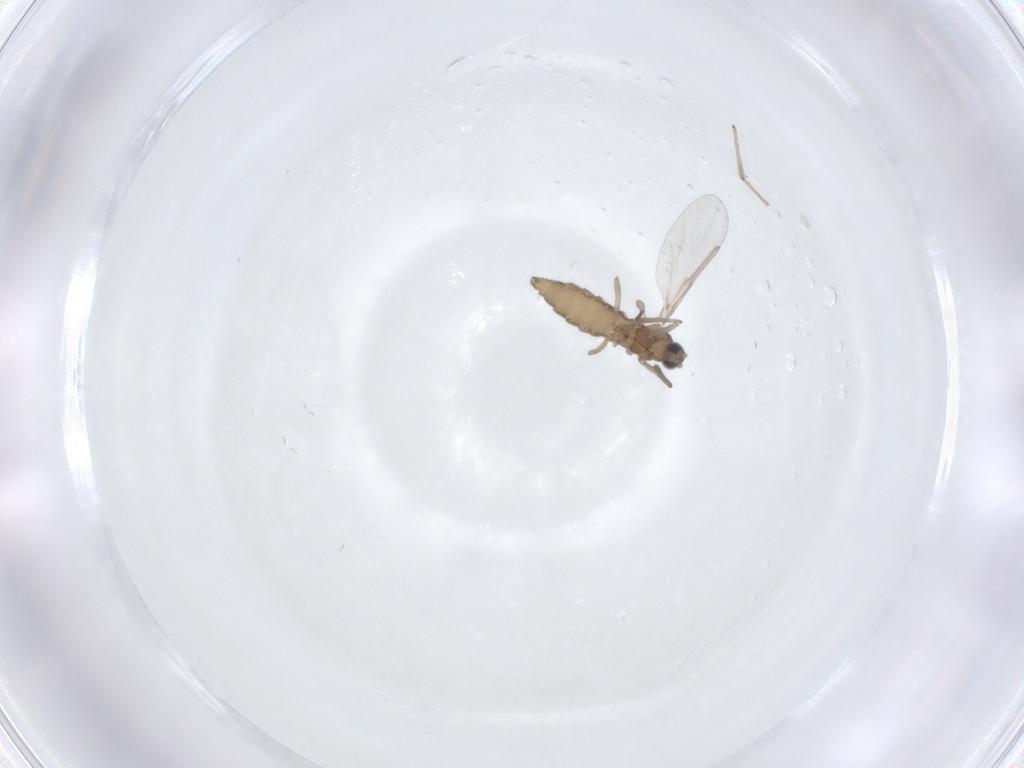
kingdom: Animalia
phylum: Arthropoda
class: Insecta
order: Diptera
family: Cecidomyiidae
